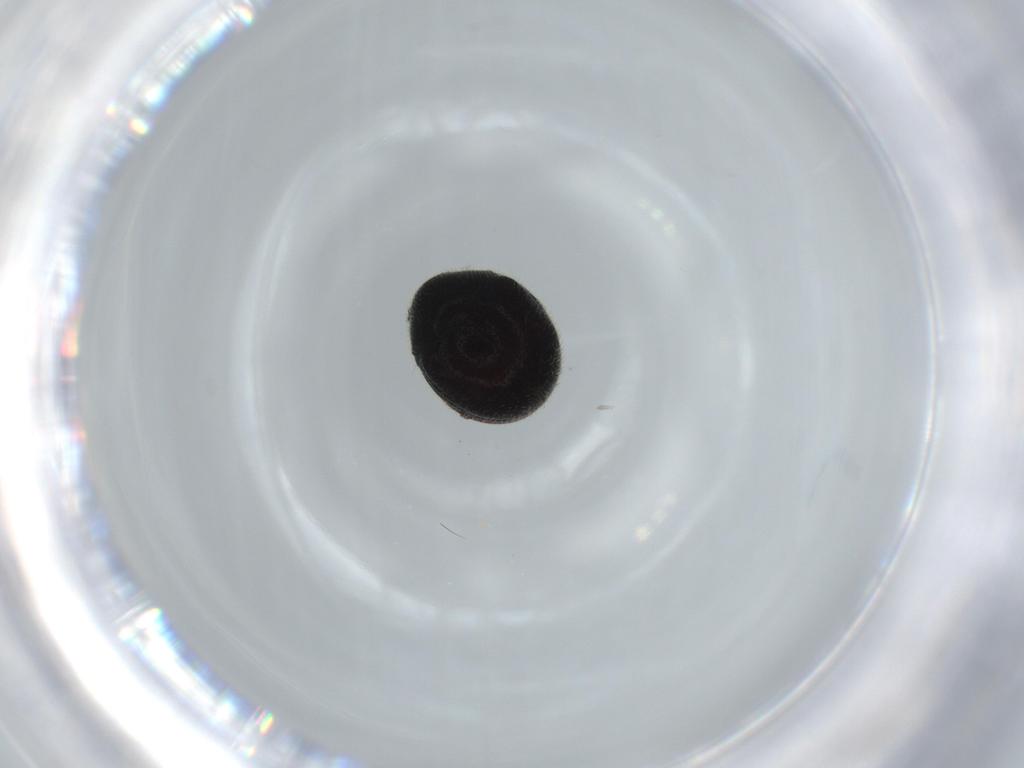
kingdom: Animalia
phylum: Arthropoda
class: Insecta
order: Coleoptera
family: Ptinidae
